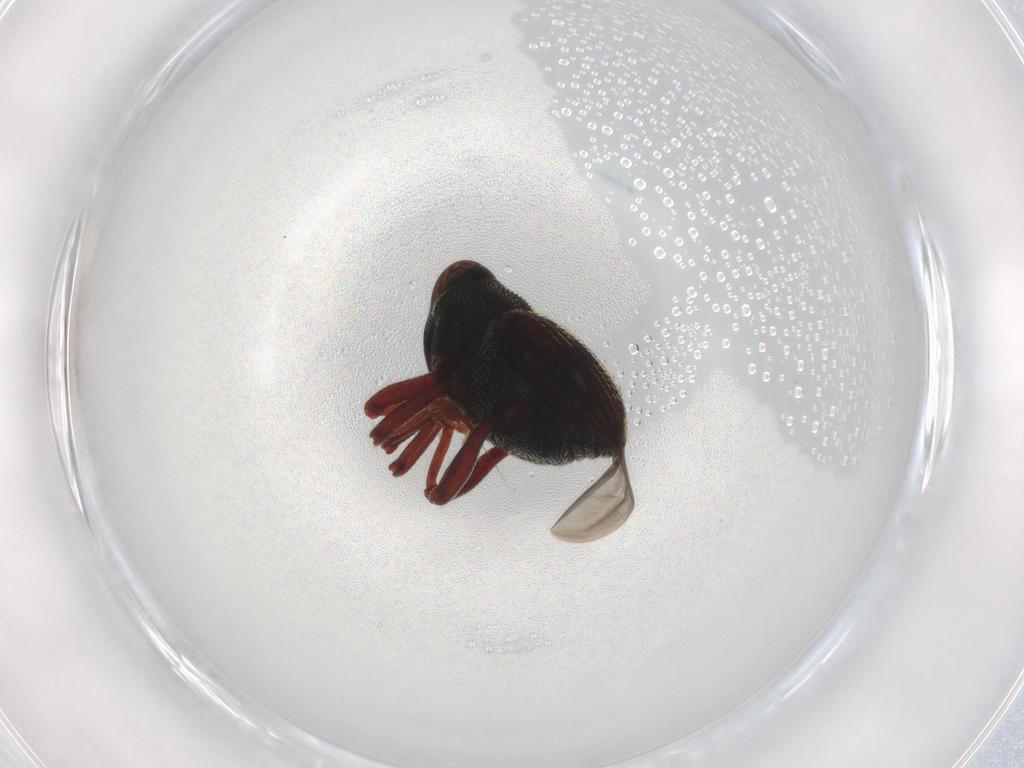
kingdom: Animalia
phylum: Arthropoda
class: Insecta
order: Coleoptera
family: Curculionidae
